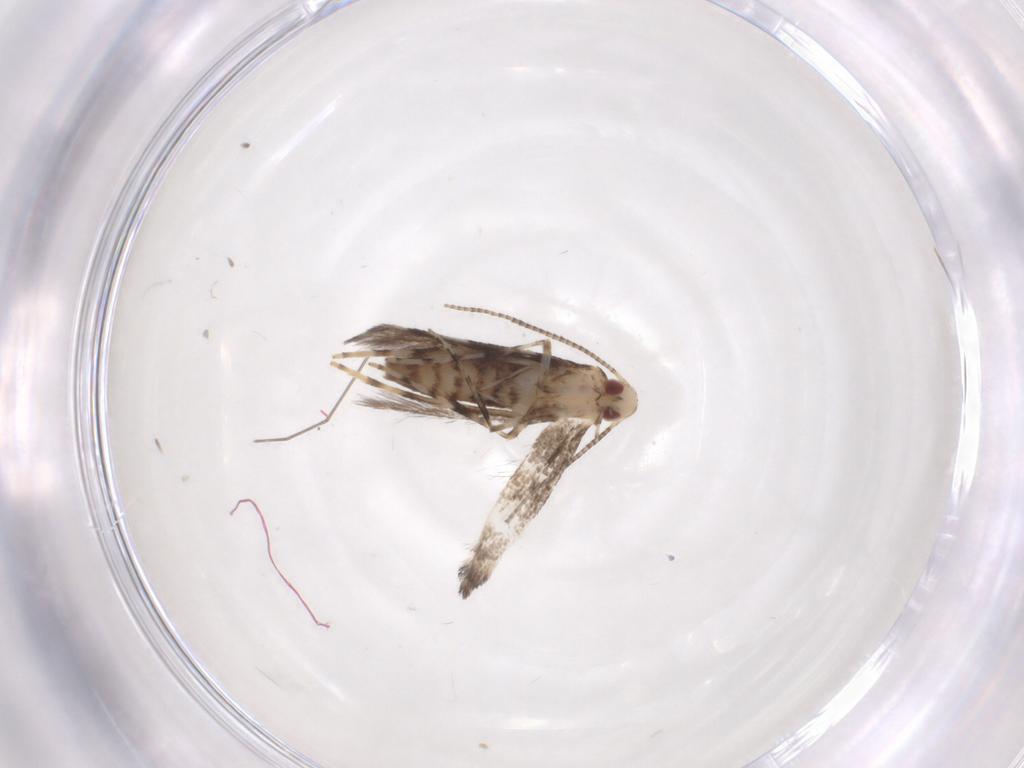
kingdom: Animalia
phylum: Arthropoda
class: Insecta
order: Lepidoptera
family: Gracillariidae
